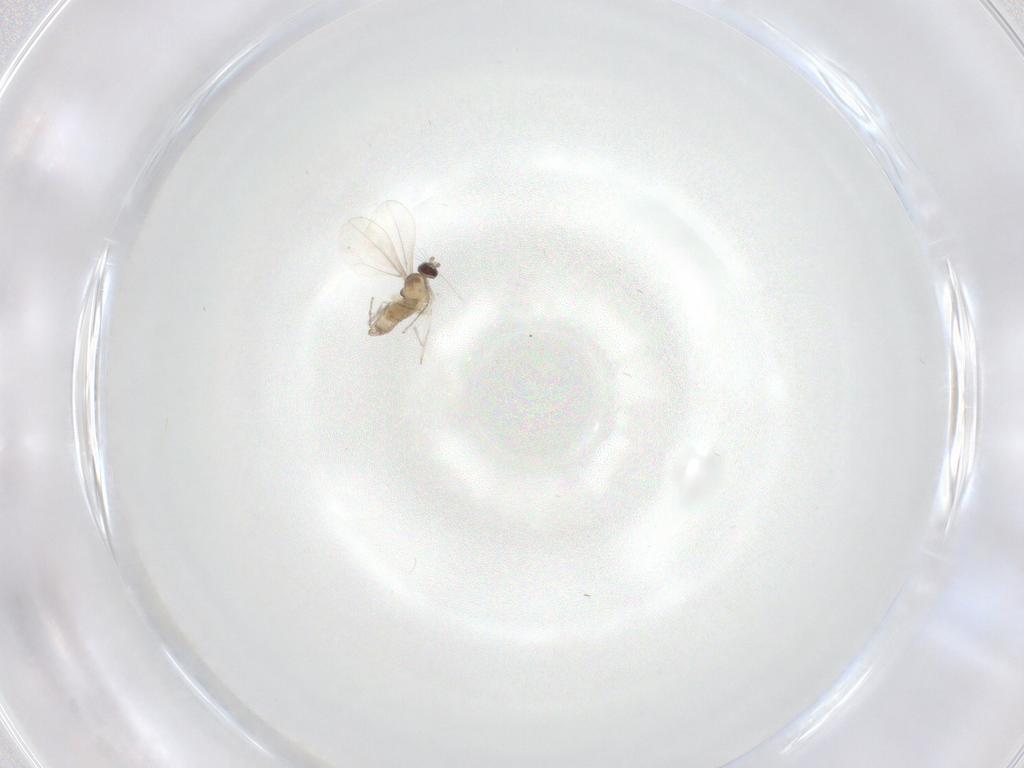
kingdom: Animalia
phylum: Arthropoda
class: Insecta
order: Diptera
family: Cecidomyiidae
